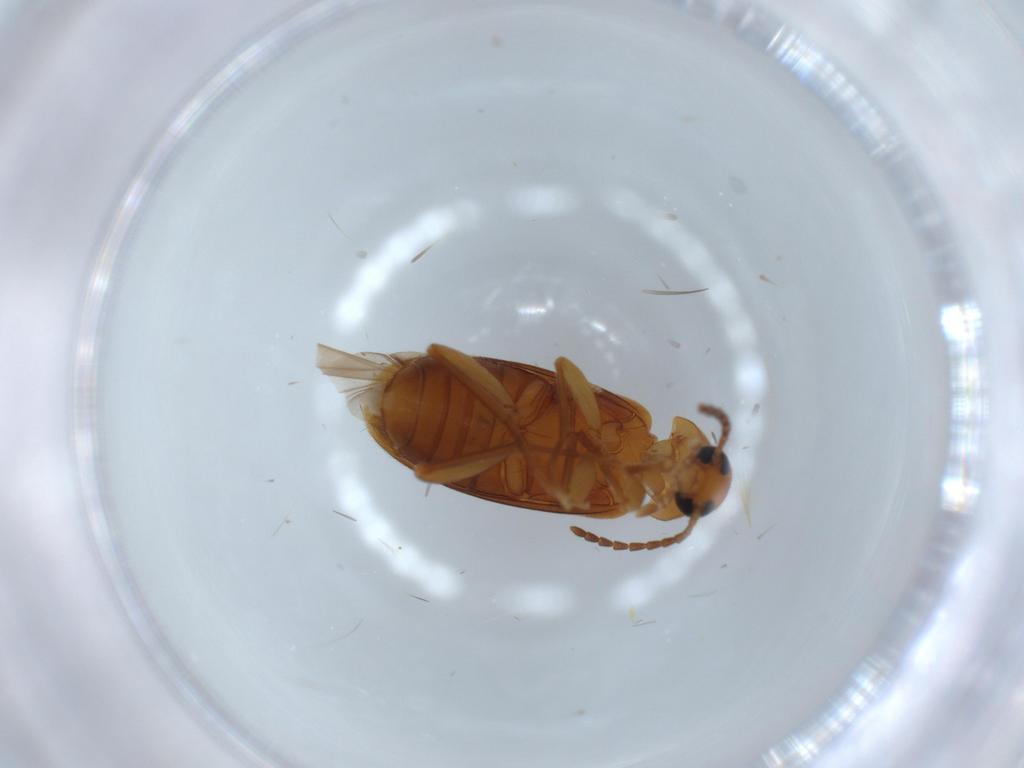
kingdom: Animalia
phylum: Arthropoda
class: Insecta
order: Coleoptera
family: Scraptiidae
